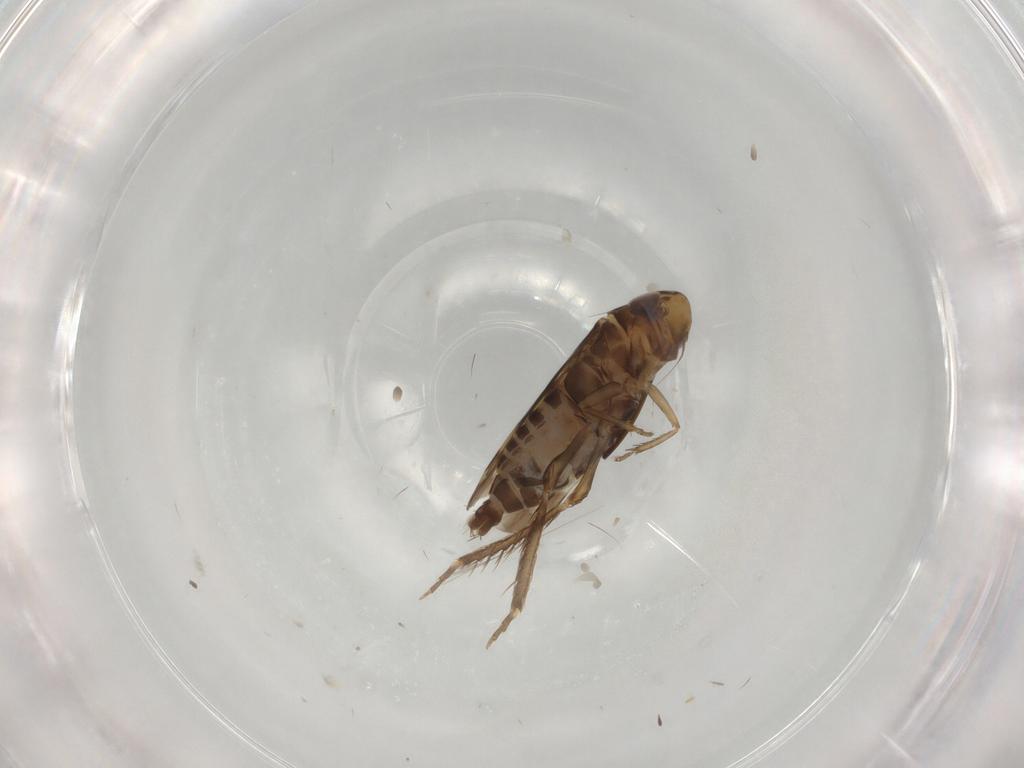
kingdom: Animalia
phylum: Arthropoda
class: Insecta
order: Hemiptera
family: Cicadellidae
